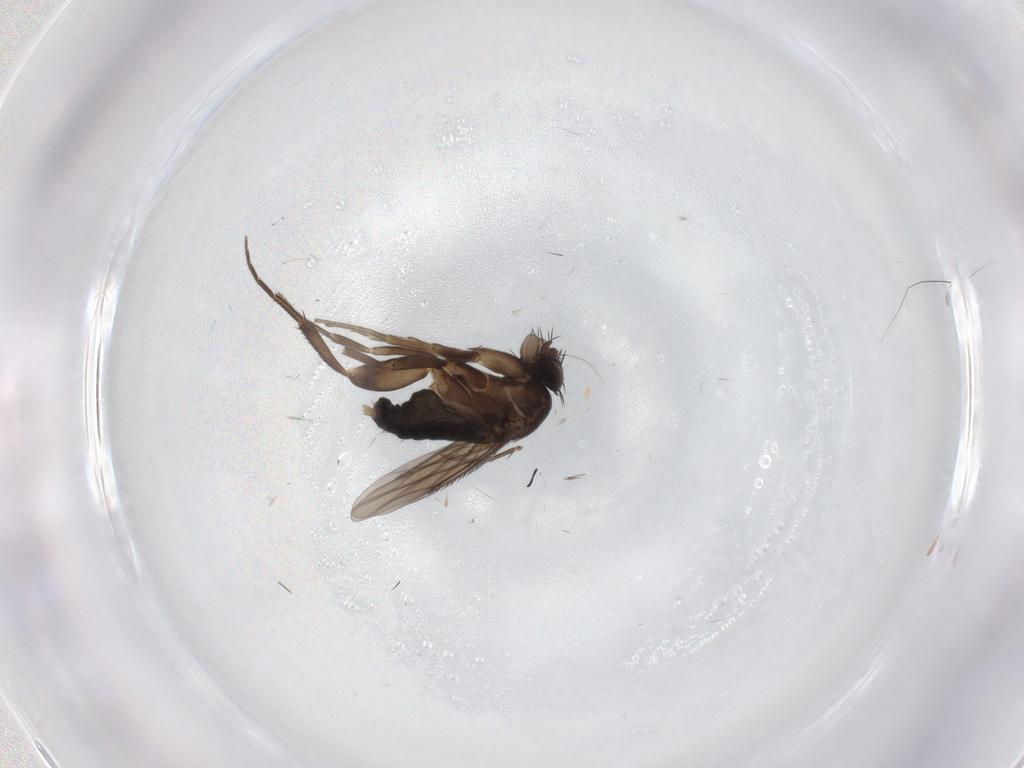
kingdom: Animalia
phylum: Arthropoda
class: Insecta
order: Diptera
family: Phoridae
